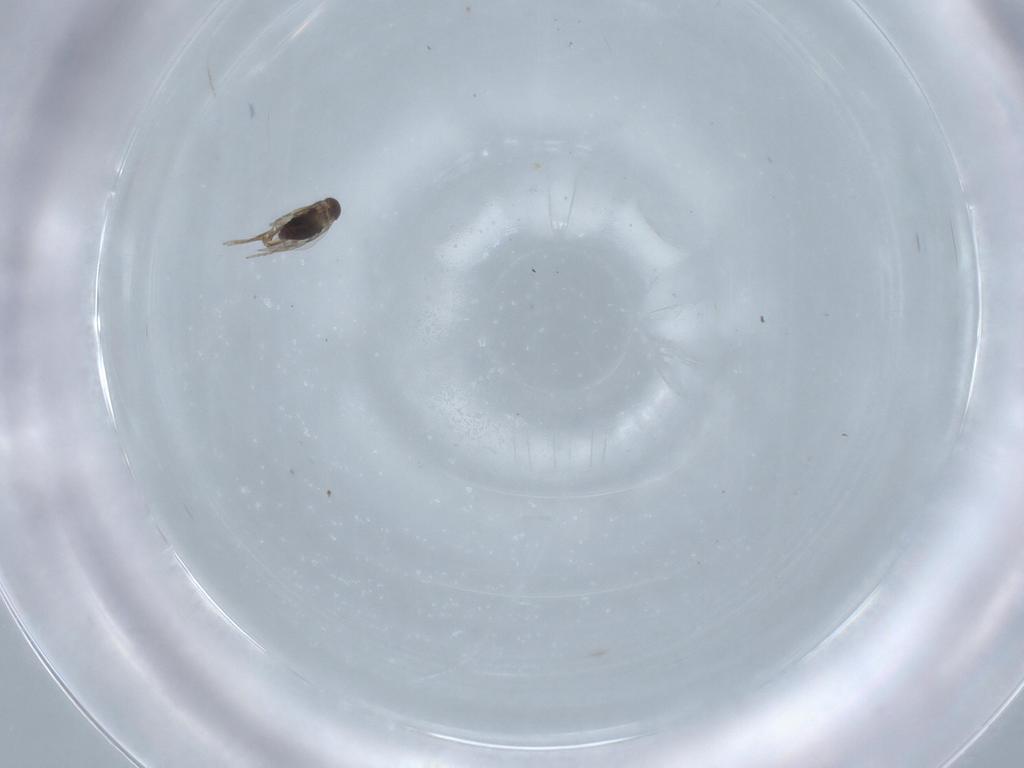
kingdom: Animalia
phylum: Arthropoda
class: Insecta
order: Diptera
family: Phoridae
